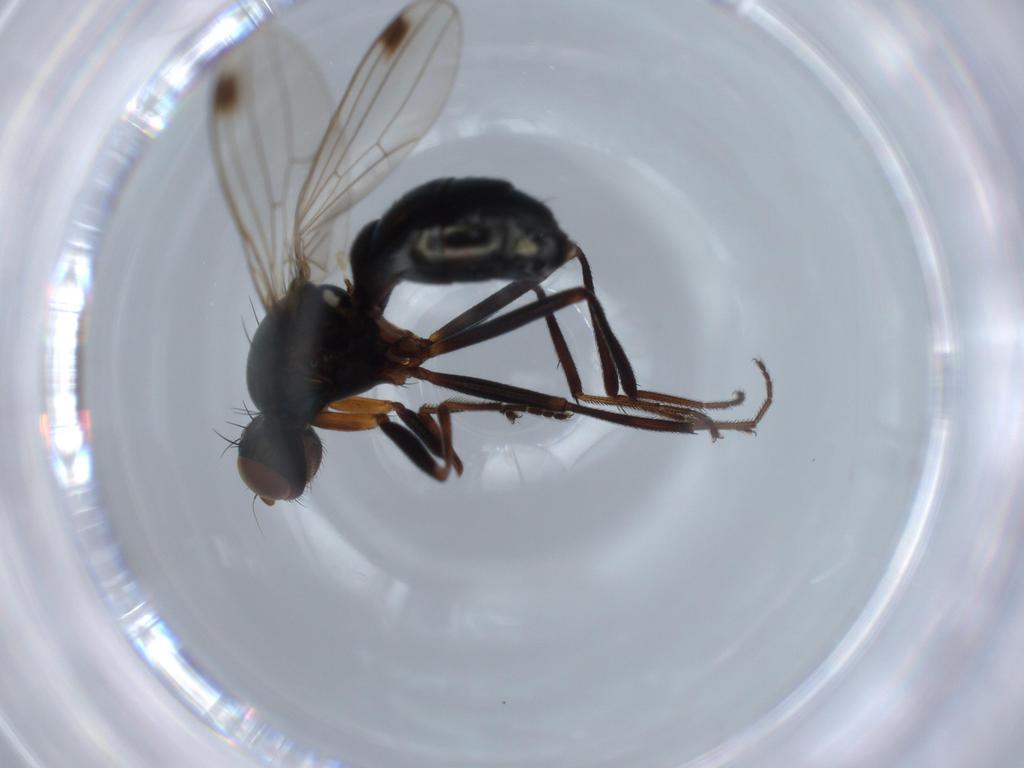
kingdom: Animalia
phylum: Arthropoda
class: Insecta
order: Diptera
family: Sepsidae
